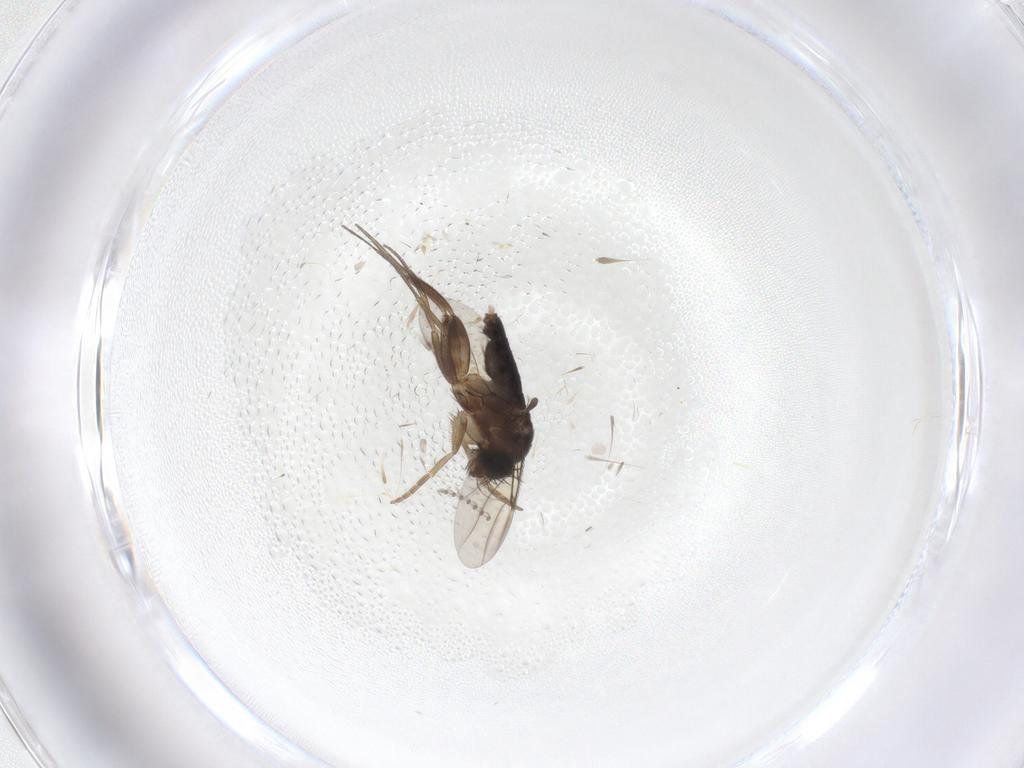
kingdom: Animalia
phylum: Arthropoda
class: Insecta
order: Diptera
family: Phoridae
